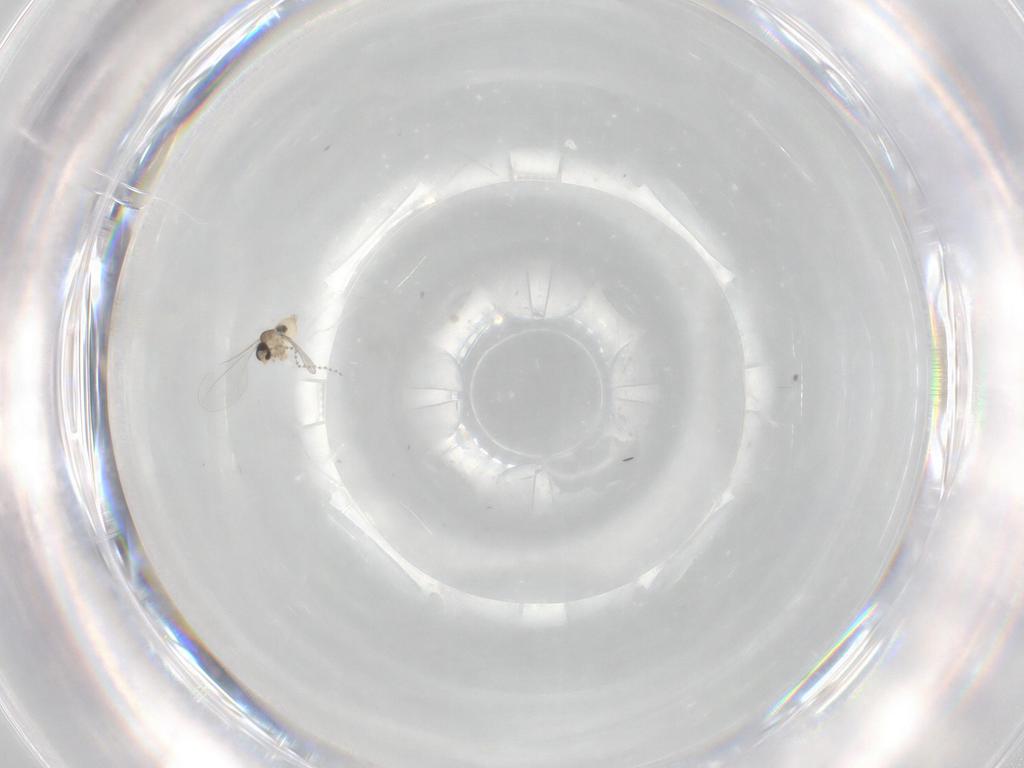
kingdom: Animalia
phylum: Arthropoda
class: Insecta
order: Diptera
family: Cecidomyiidae
